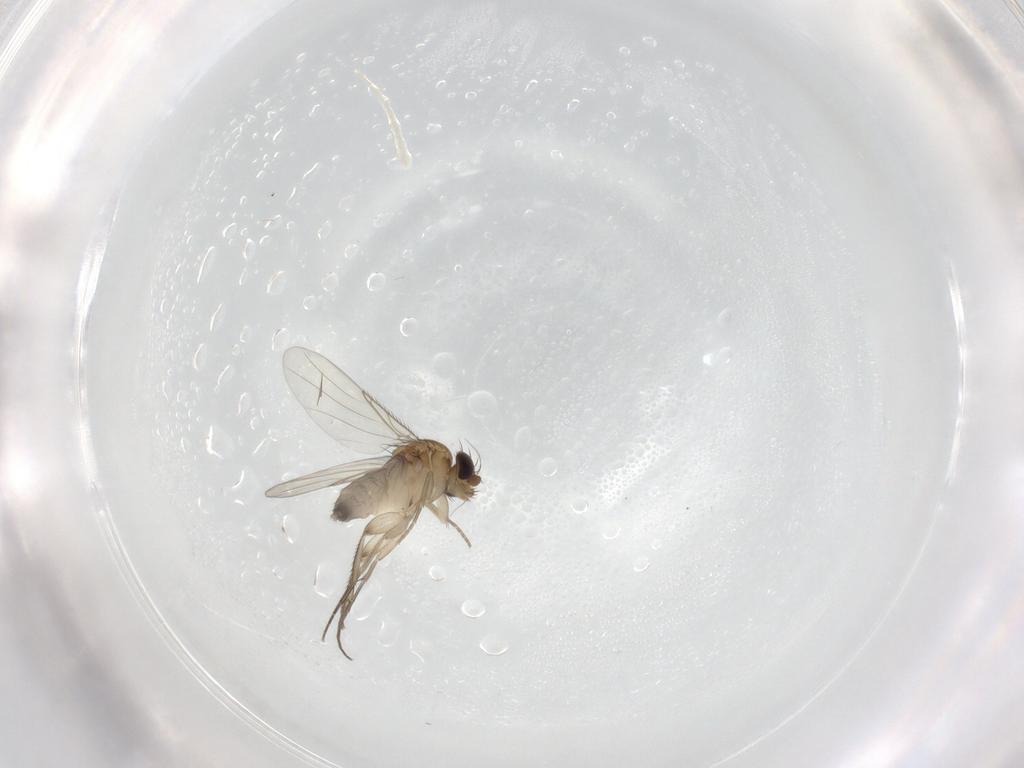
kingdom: Animalia
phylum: Arthropoda
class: Insecta
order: Diptera
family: Phoridae
